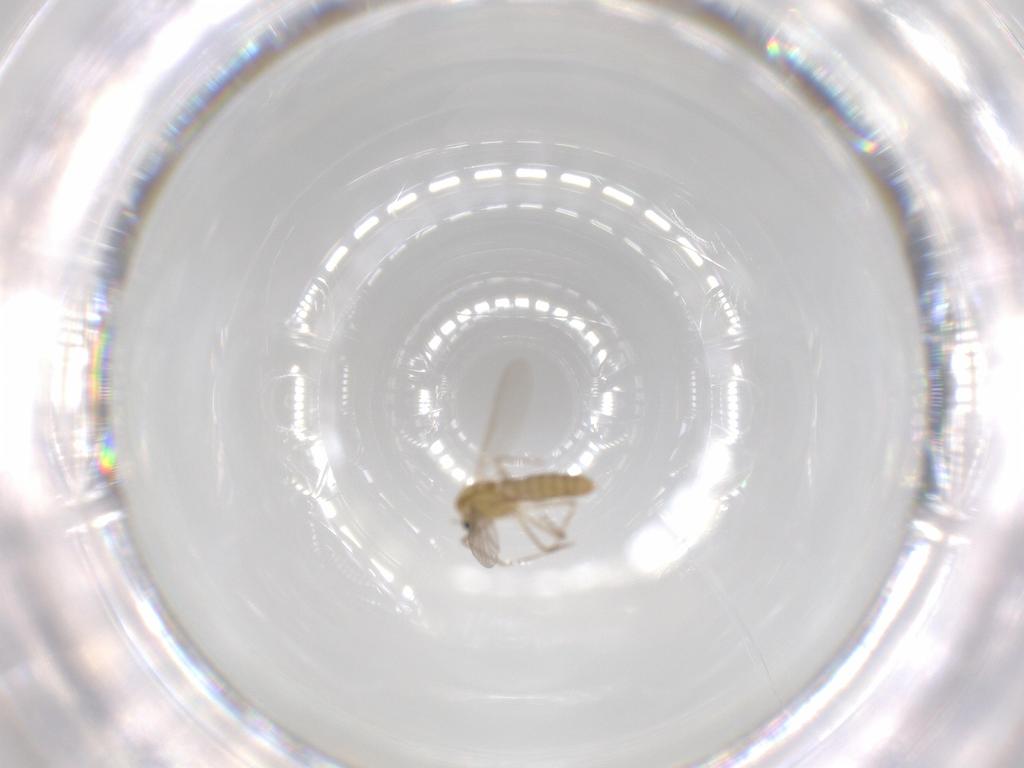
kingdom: Animalia
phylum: Arthropoda
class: Insecta
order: Diptera
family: Chironomidae
